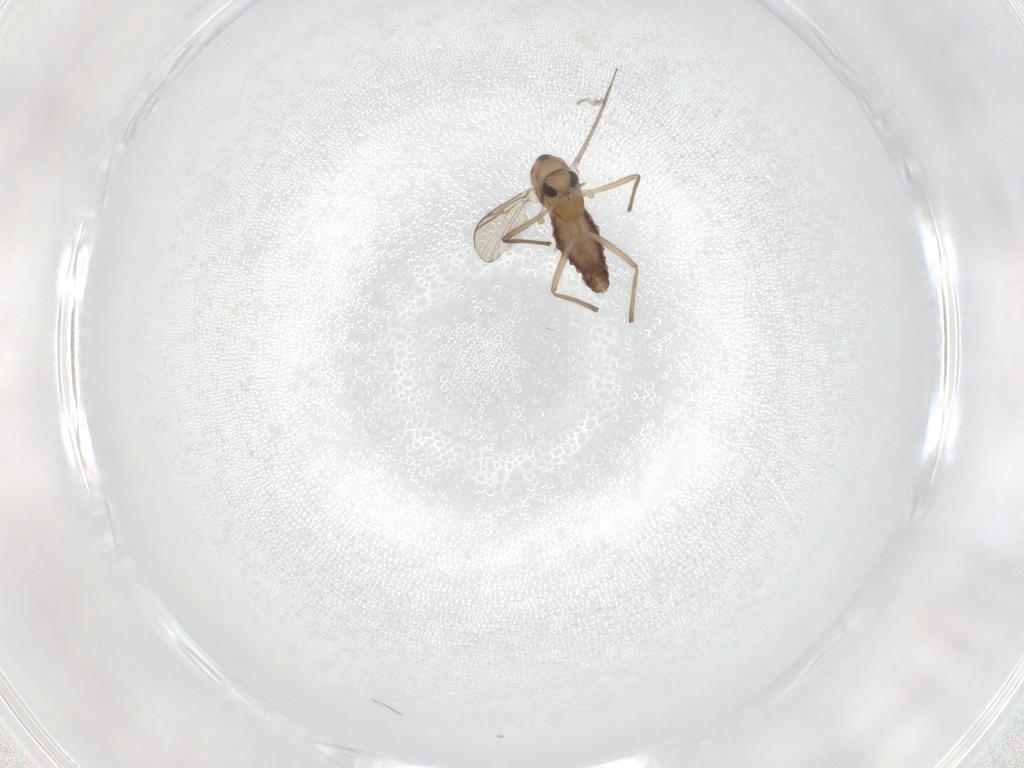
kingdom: Animalia
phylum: Arthropoda
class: Insecta
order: Diptera
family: Chironomidae
